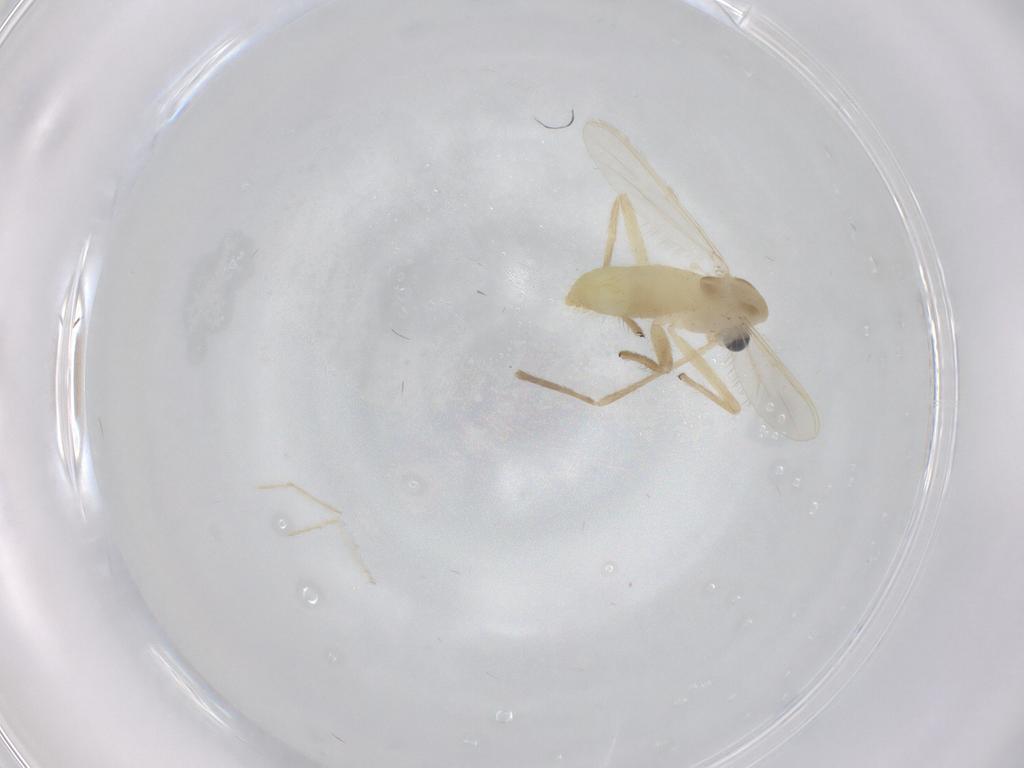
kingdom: Animalia
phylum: Arthropoda
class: Insecta
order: Diptera
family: Chironomidae
